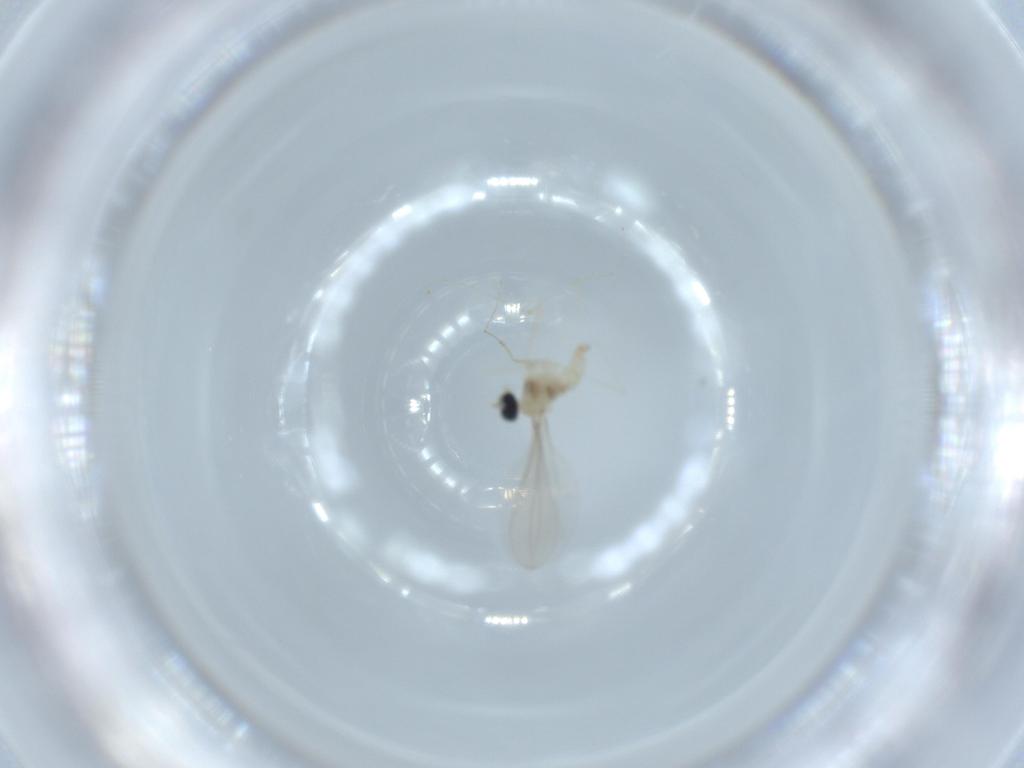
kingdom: Animalia
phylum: Arthropoda
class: Insecta
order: Diptera
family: Cecidomyiidae
